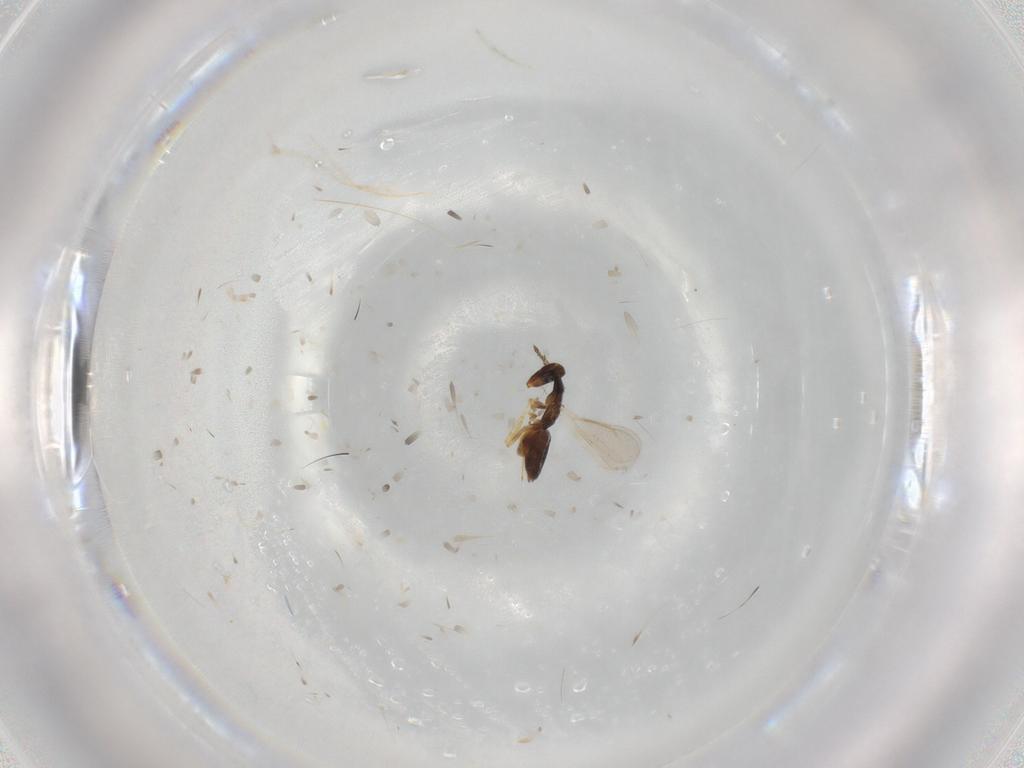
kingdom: Animalia
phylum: Arthropoda
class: Insecta
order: Hymenoptera
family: Eulophidae
